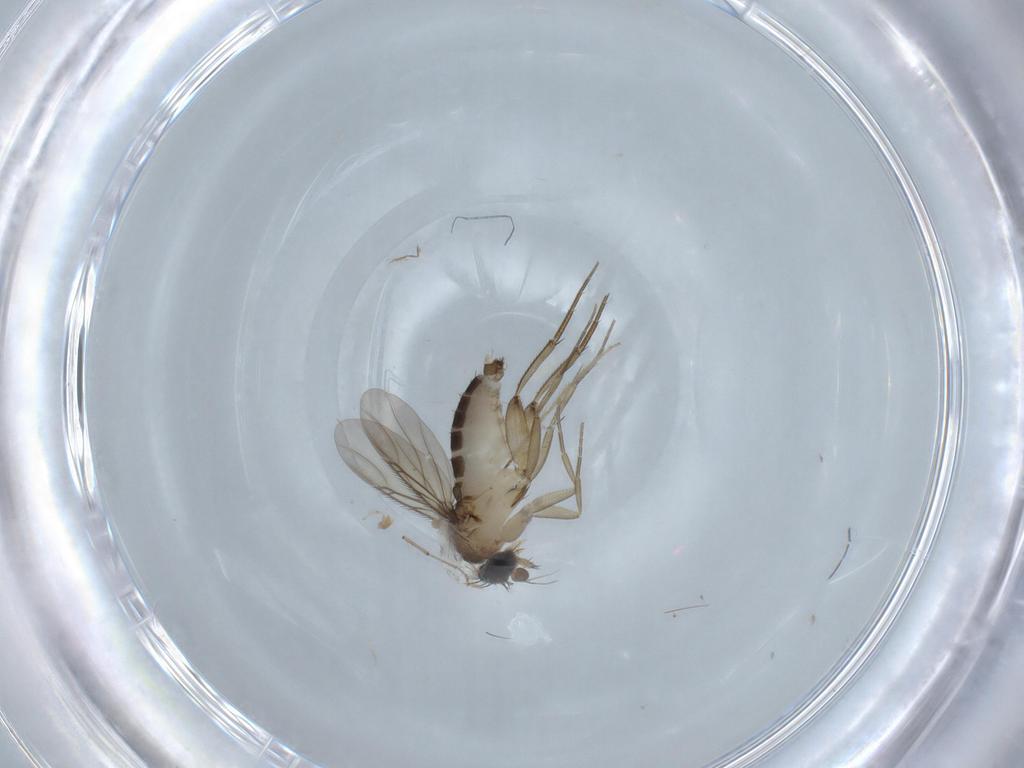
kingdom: Animalia
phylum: Arthropoda
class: Insecta
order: Diptera
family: Phoridae
